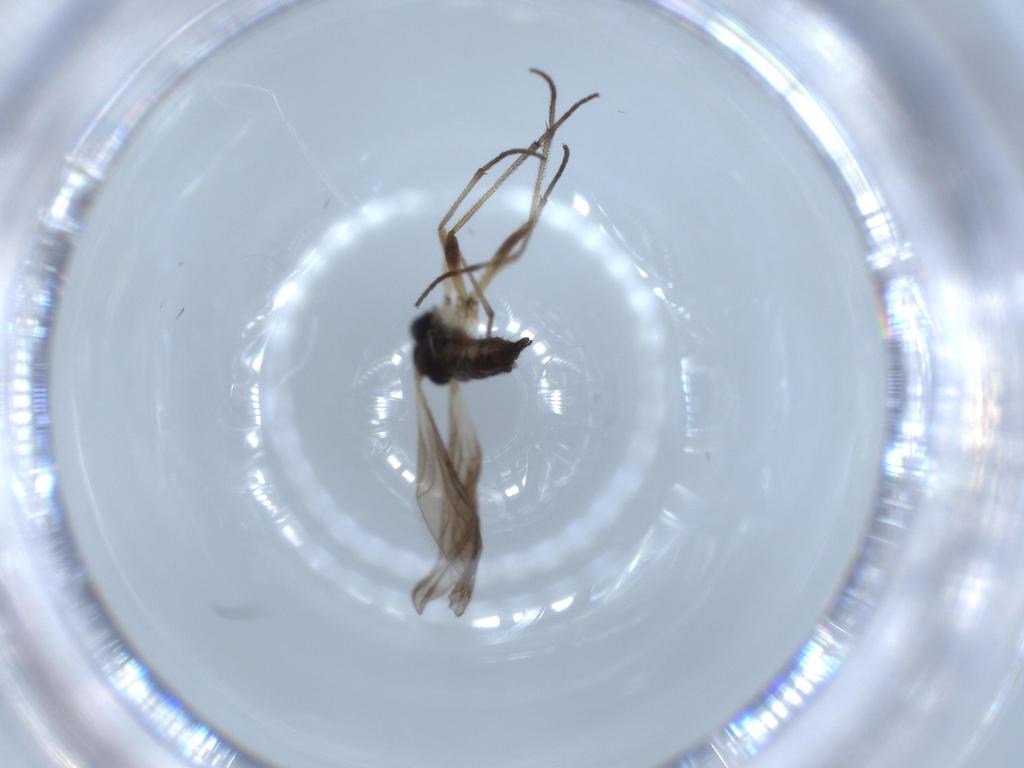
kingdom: Animalia
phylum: Arthropoda
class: Insecta
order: Diptera
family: Sciaridae
